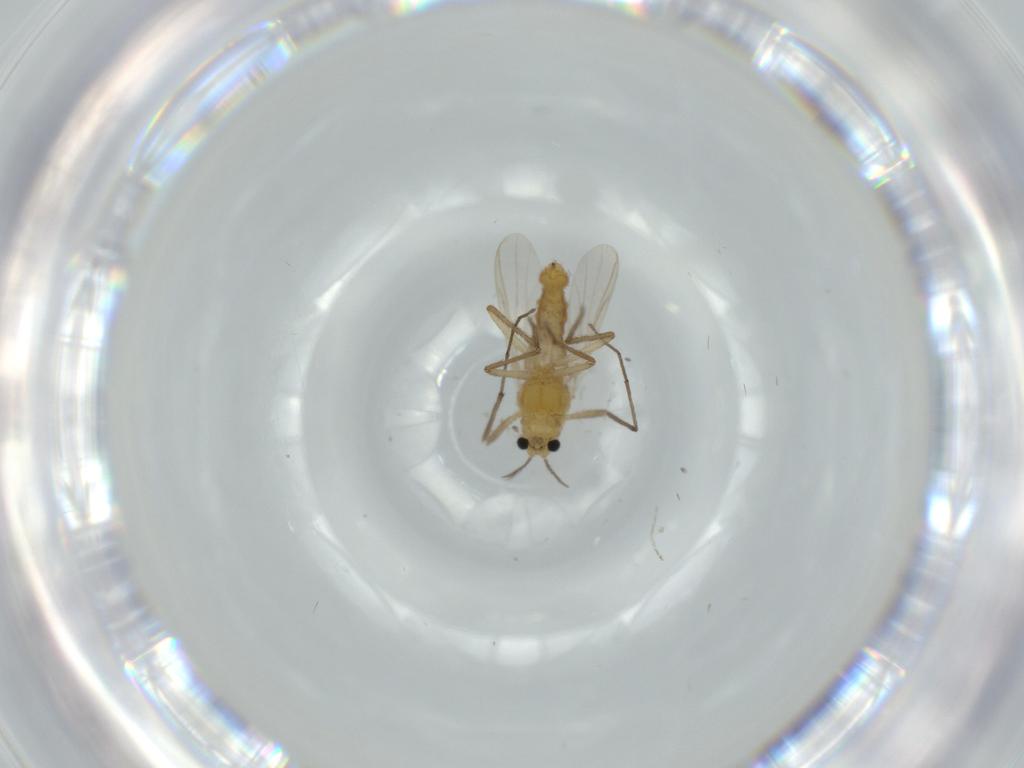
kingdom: Animalia
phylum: Arthropoda
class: Insecta
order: Diptera
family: Chironomidae
